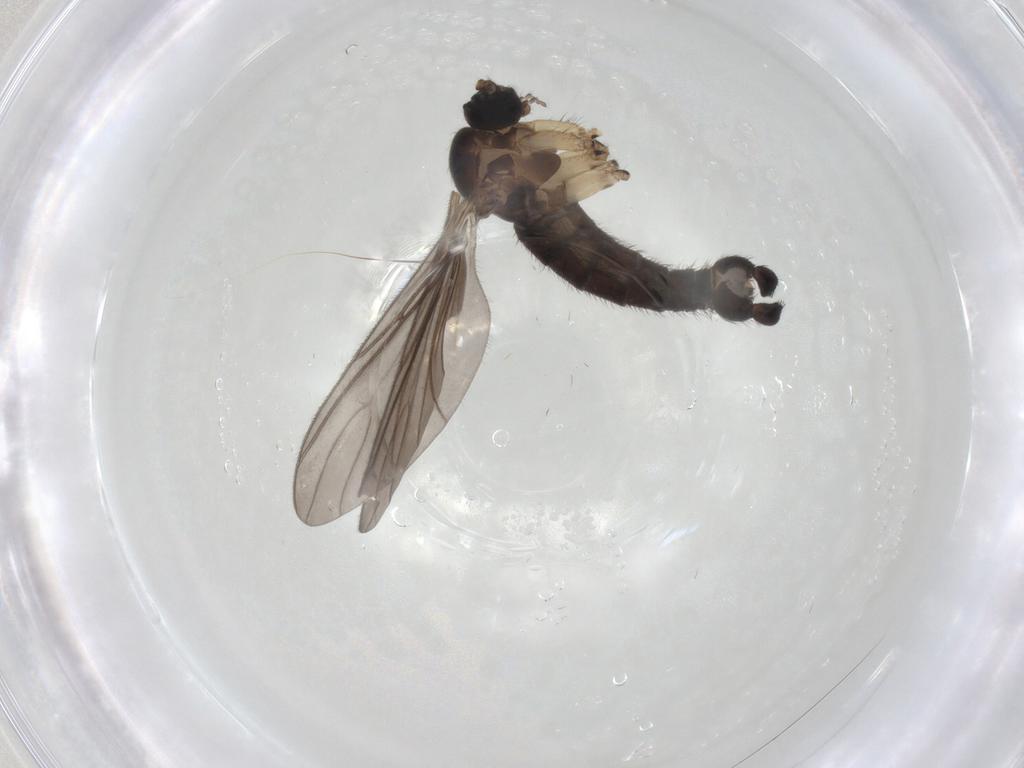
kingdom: Animalia
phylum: Arthropoda
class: Insecta
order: Diptera
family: Sciaridae
